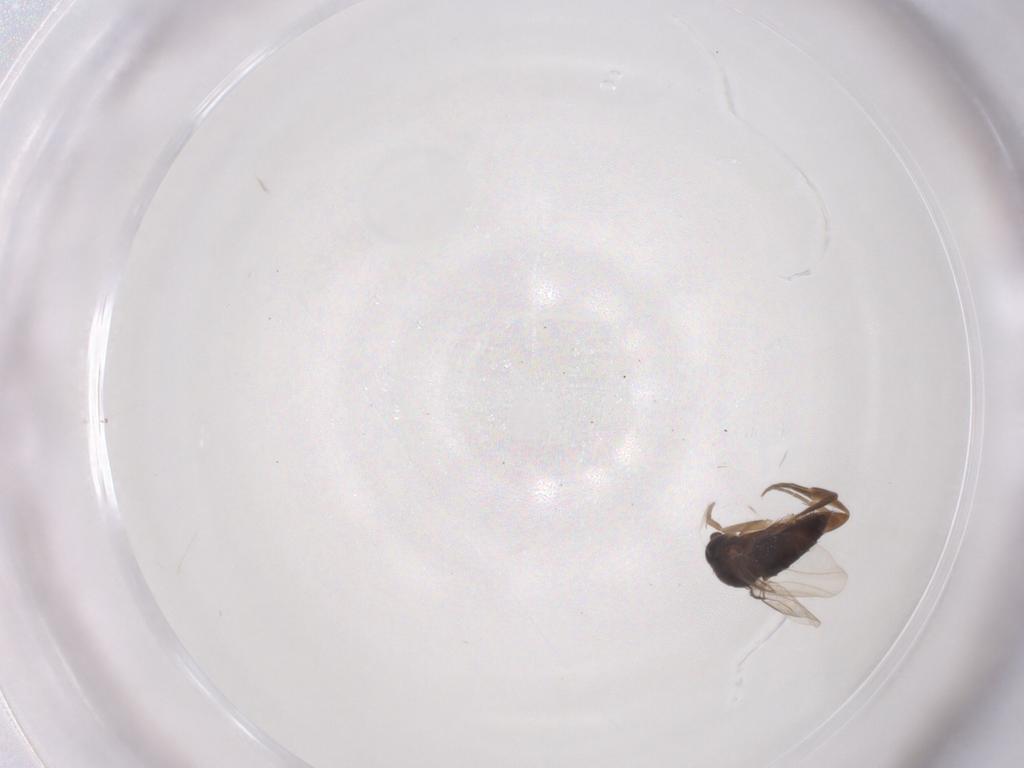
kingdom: Animalia
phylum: Arthropoda
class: Insecta
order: Diptera
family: Phoridae
